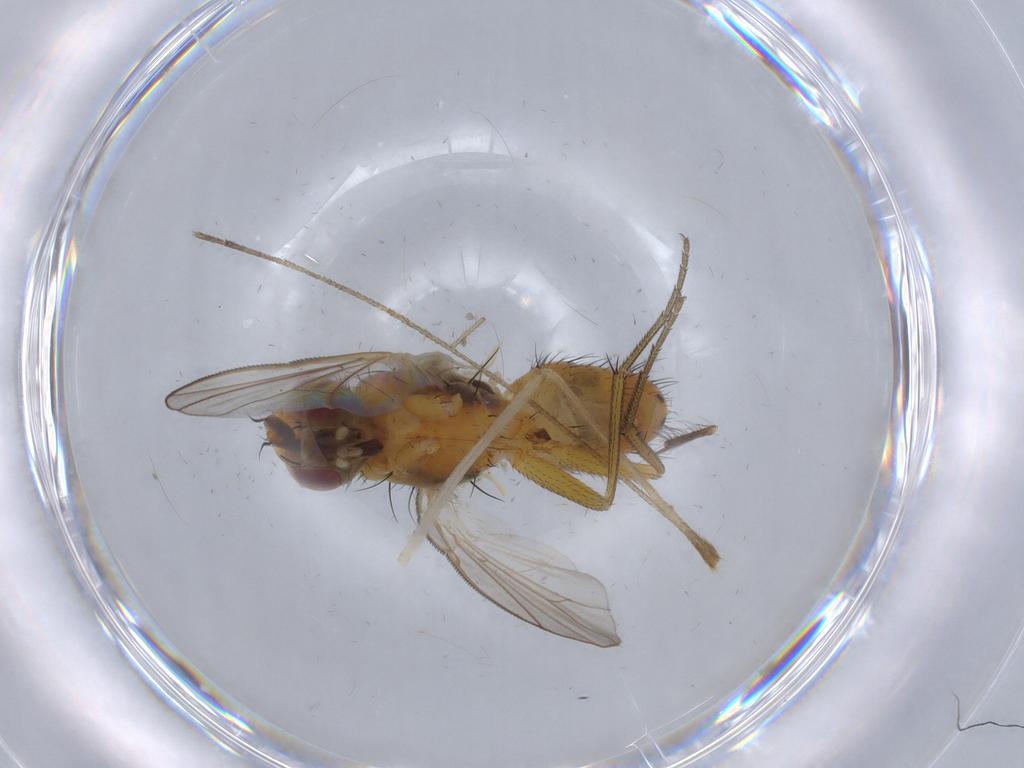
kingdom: Animalia
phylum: Arthropoda
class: Insecta
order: Diptera
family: Muscidae
